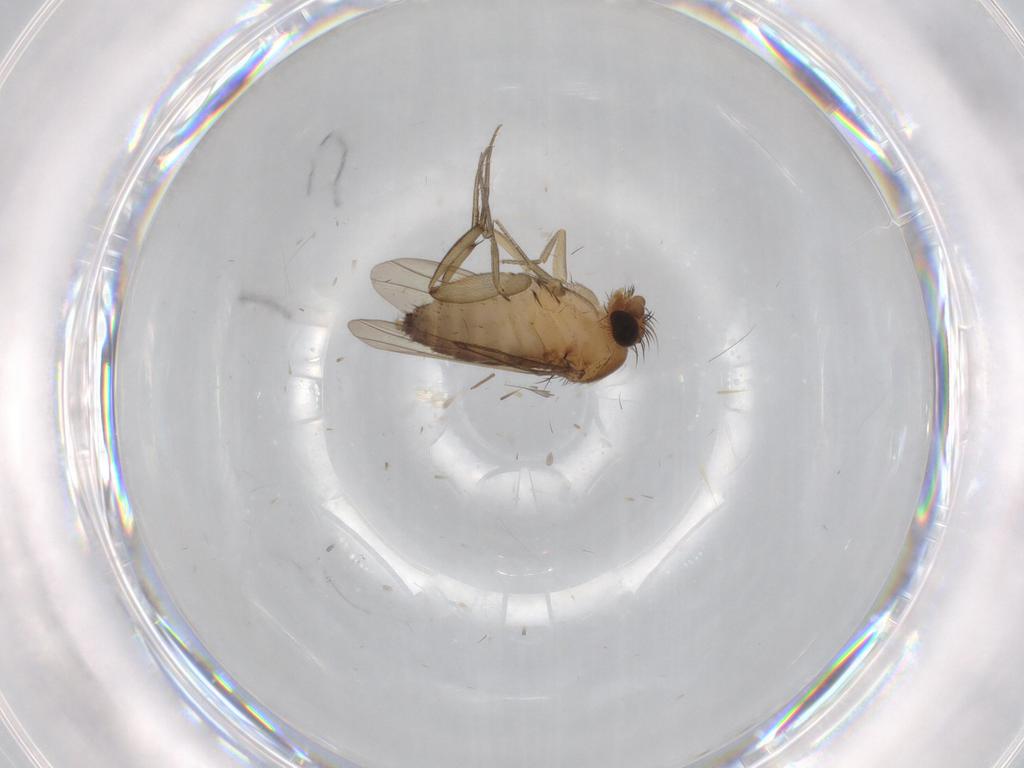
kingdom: Animalia
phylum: Arthropoda
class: Insecta
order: Diptera
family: Phoridae
